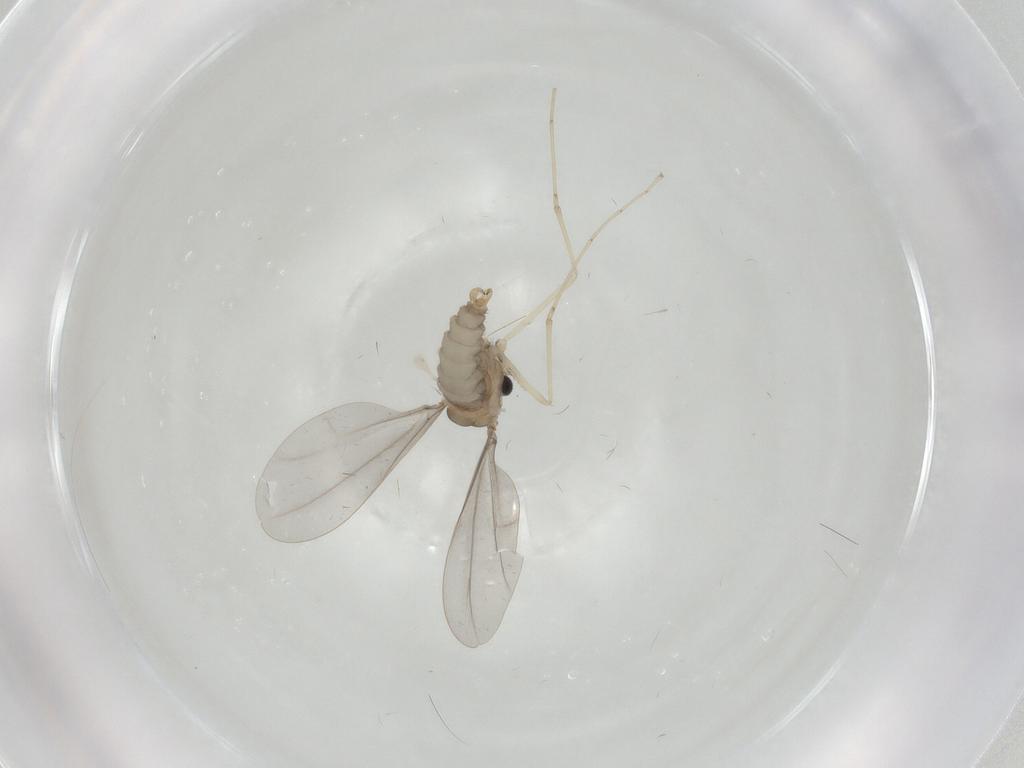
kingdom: Animalia
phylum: Arthropoda
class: Insecta
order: Diptera
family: Cecidomyiidae
